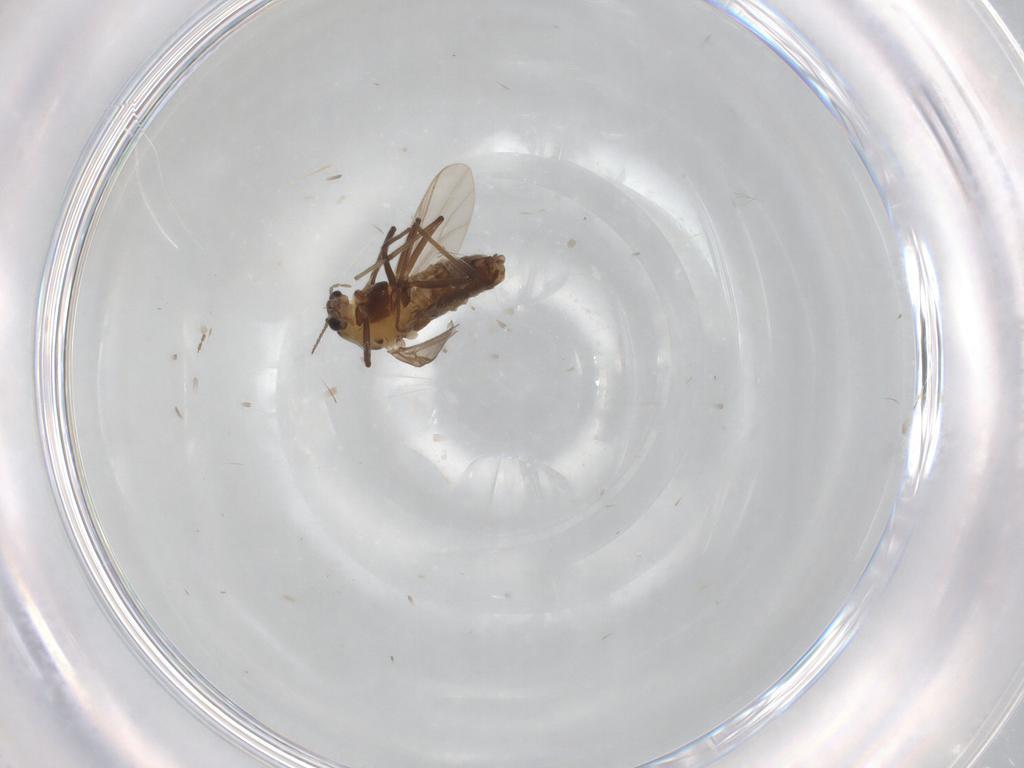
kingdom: Animalia
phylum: Arthropoda
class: Insecta
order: Diptera
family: Chironomidae
